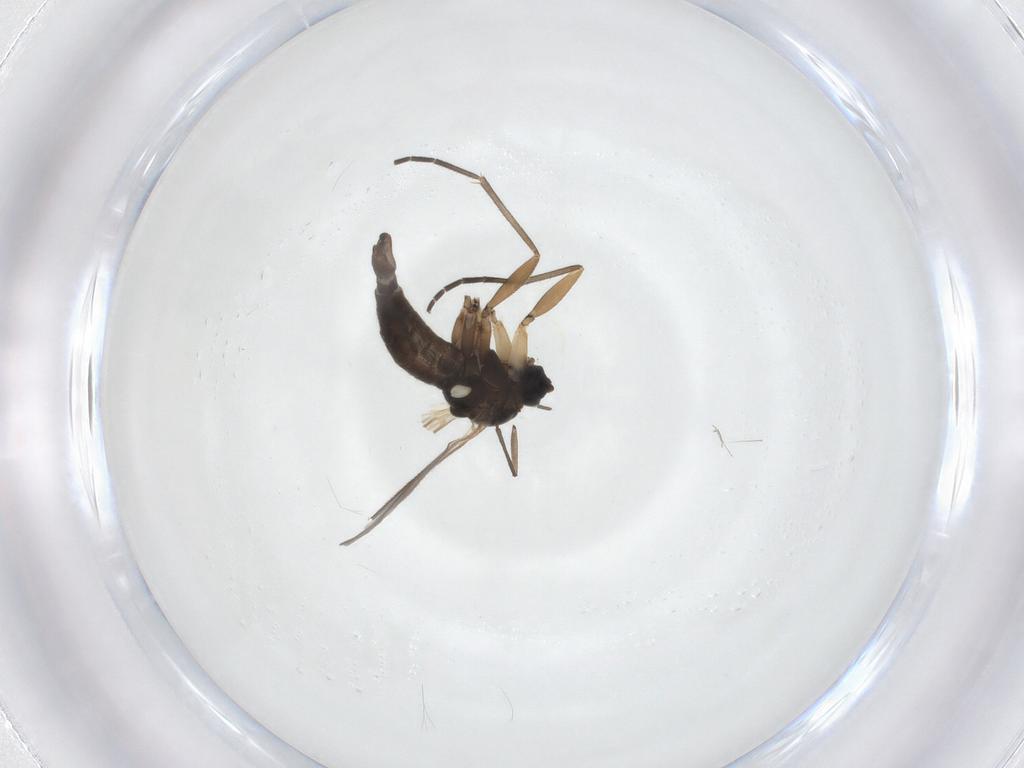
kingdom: Animalia
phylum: Arthropoda
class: Insecta
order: Diptera
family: Sciaridae
